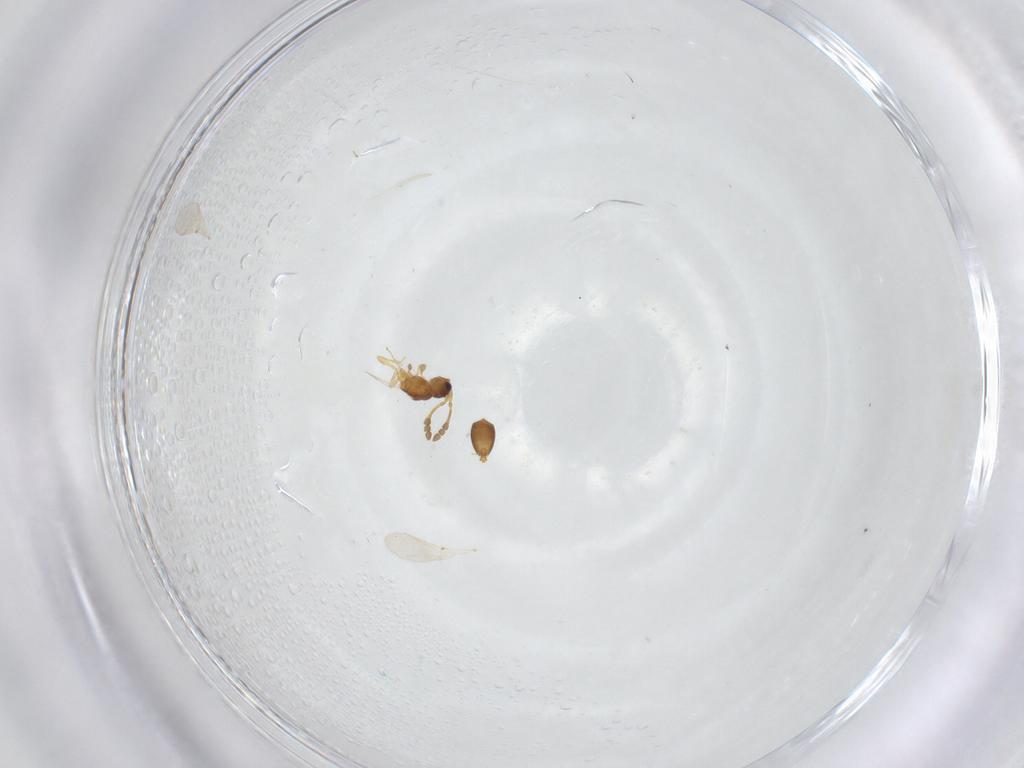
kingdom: Animalia
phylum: Arthropoda
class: Insecta
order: Hymenoptera
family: Diapriidae
